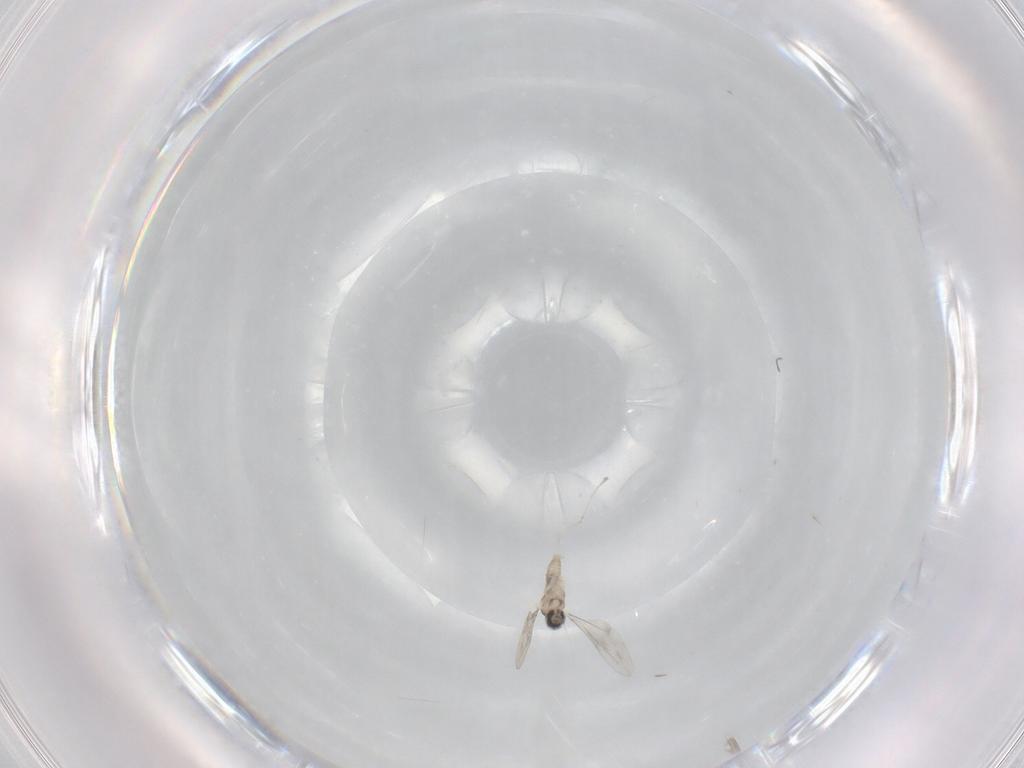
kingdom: Animalia
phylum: Arthropoda
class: Insecta
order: Diptera
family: Cecidomyiidae
